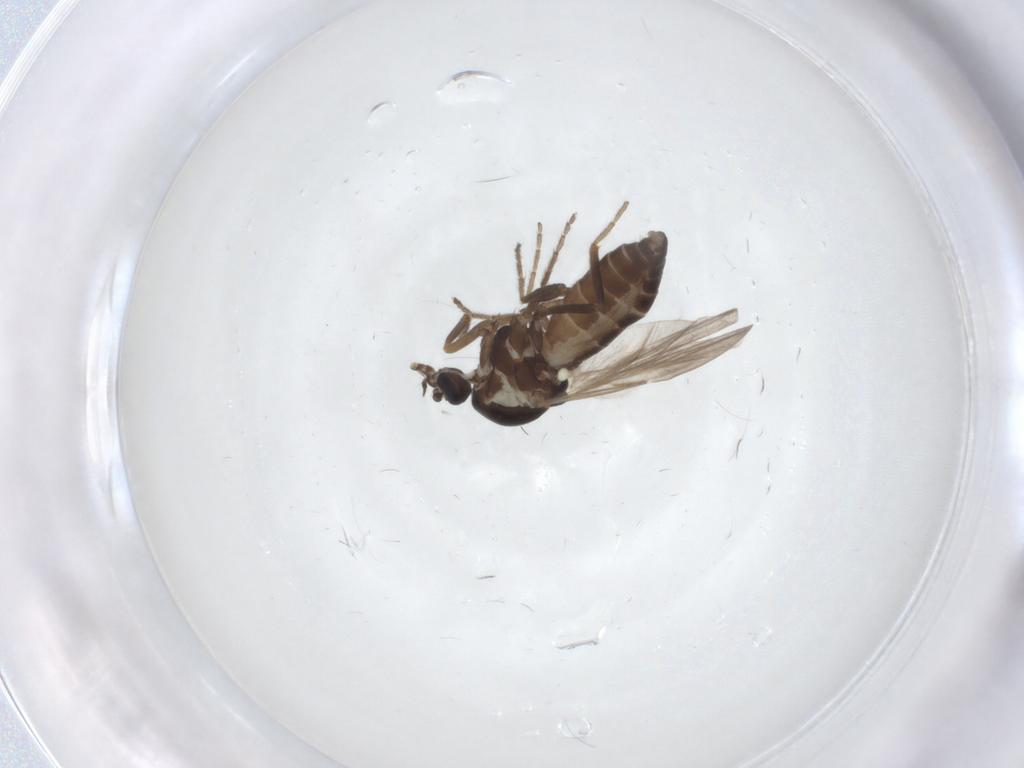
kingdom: Animalia
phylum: Arthropoda
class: Insecta
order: Diptera
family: Ceratopogonidae
